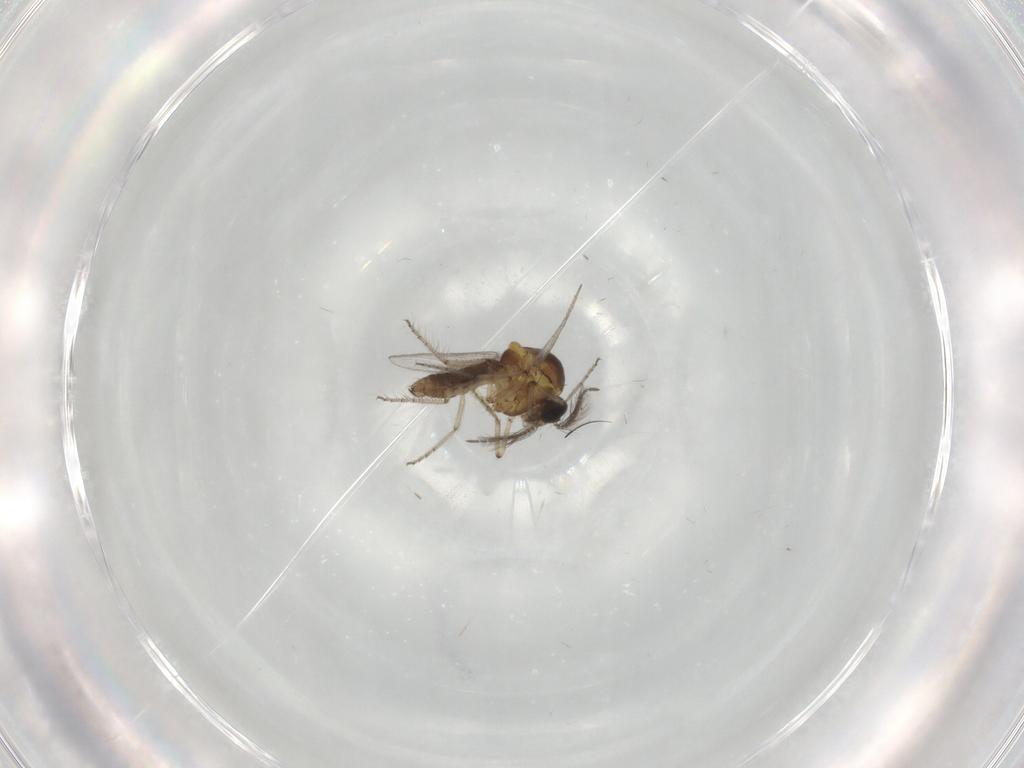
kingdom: Animalia
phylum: Arthropoda
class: Insecta
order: Diptera
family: Ceratopogonidae
